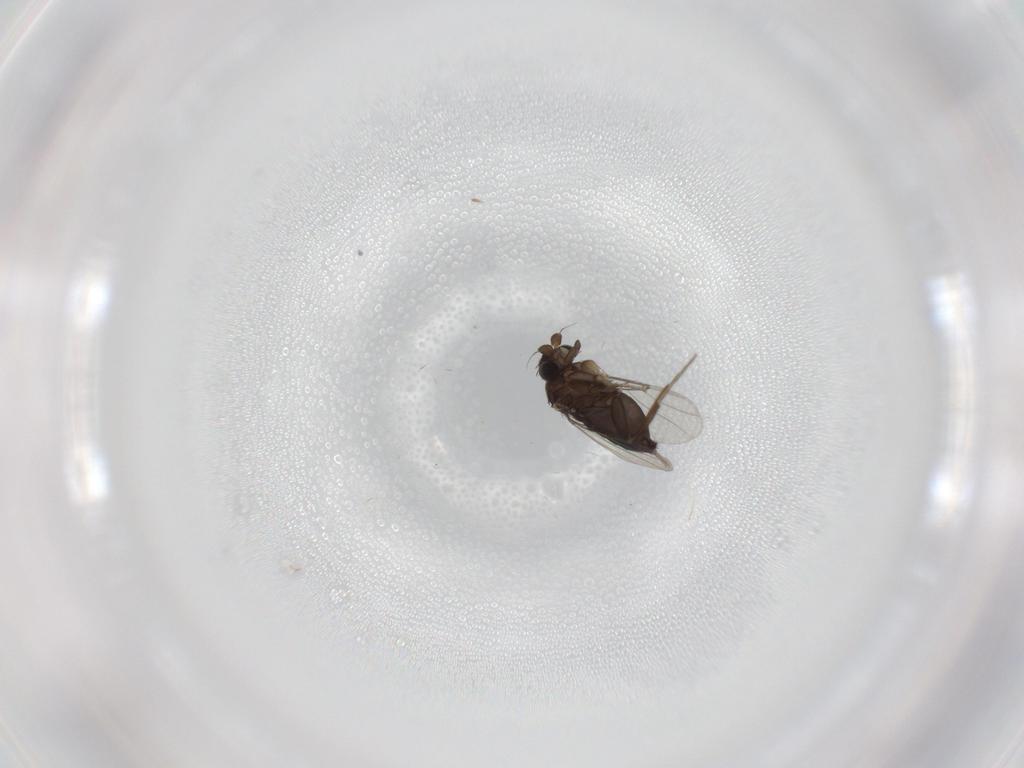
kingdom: Animalia
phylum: Arthropoda
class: Insecta
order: Diptera
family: Phoridae
